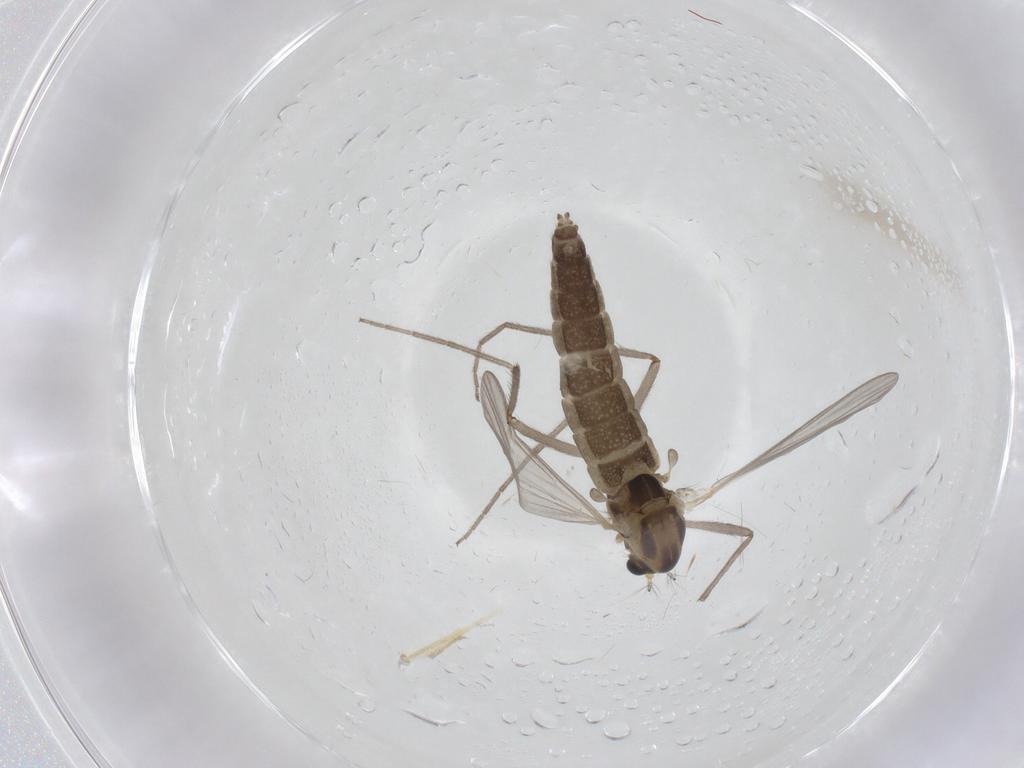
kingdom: Animalia
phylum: Arthropoda
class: Insecta
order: Diptera
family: Chironomidae
